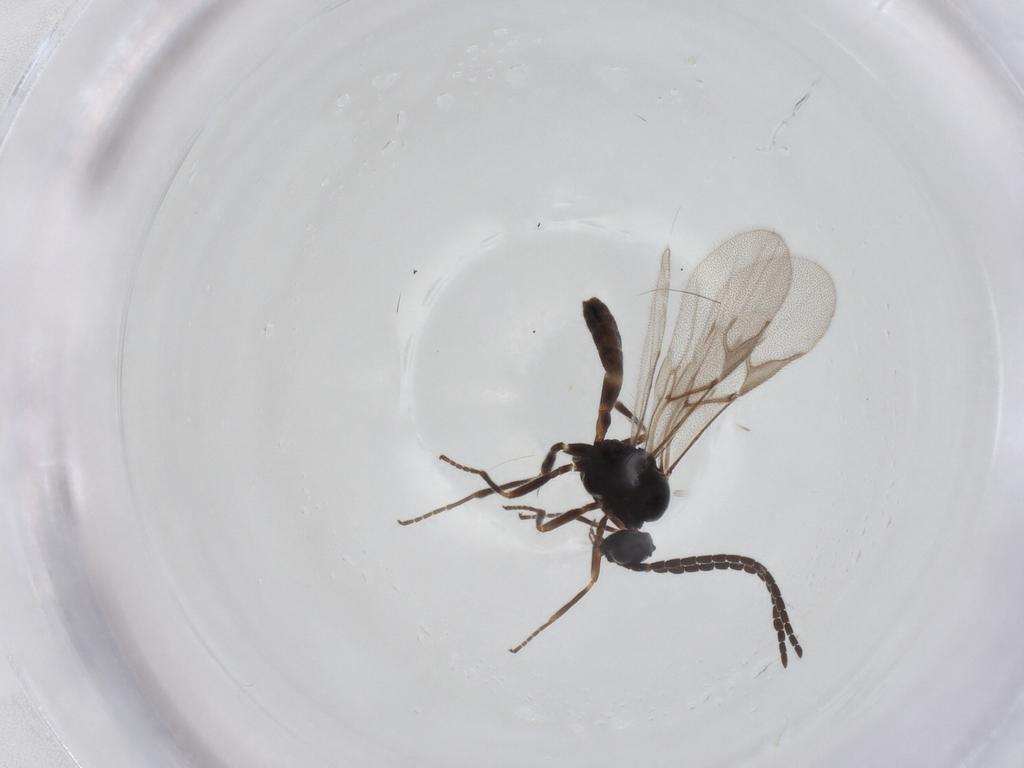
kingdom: Animalia
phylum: Arthropoda
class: Insecta
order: Hymenoptera
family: Braconidae
